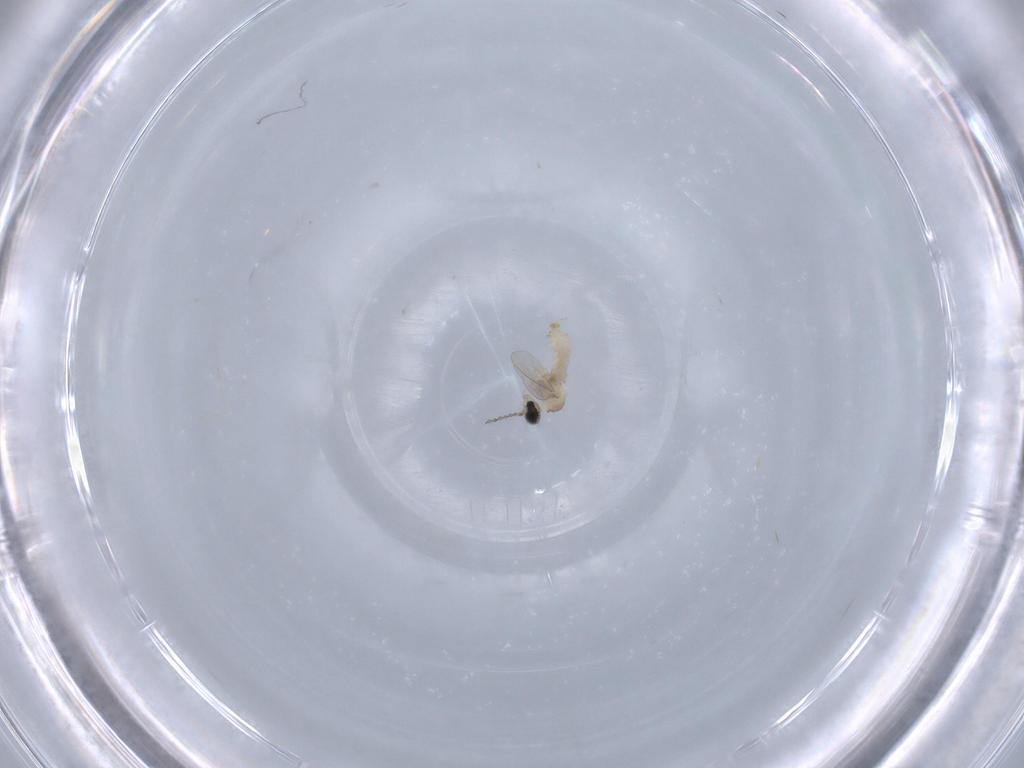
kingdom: Animalia
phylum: Arthropoda
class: Insecta
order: Diptera
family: Cecidomyiidae
